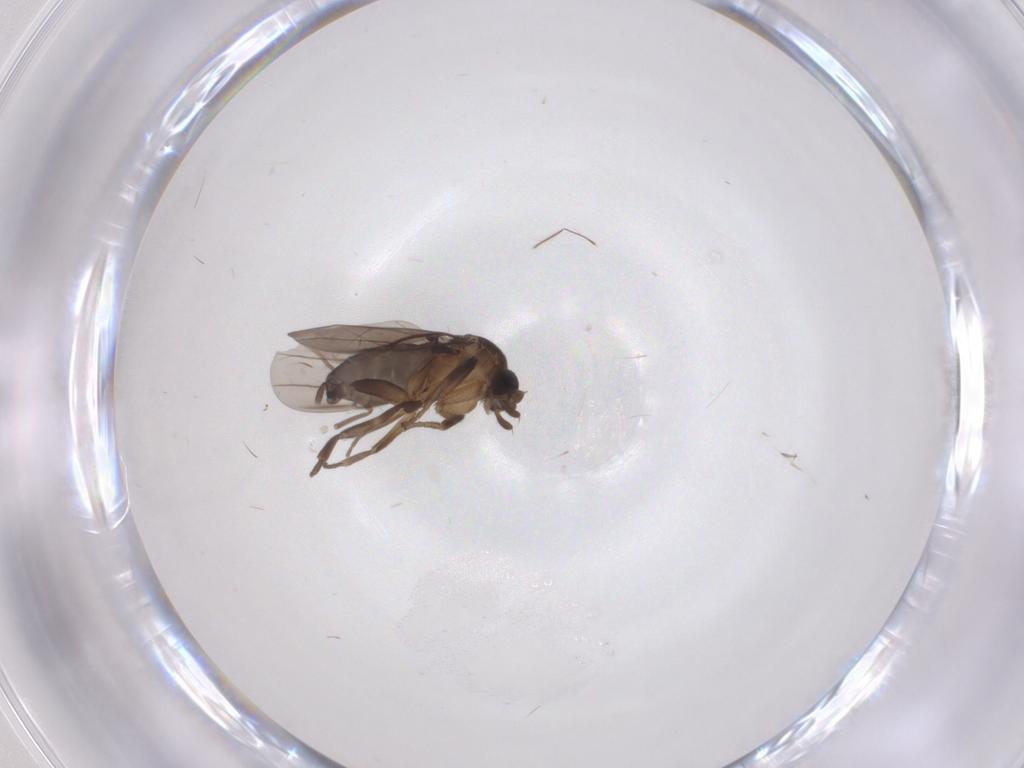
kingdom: Animalia
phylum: Arthropoda
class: Insecta
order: Diptera
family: Chironomidae
